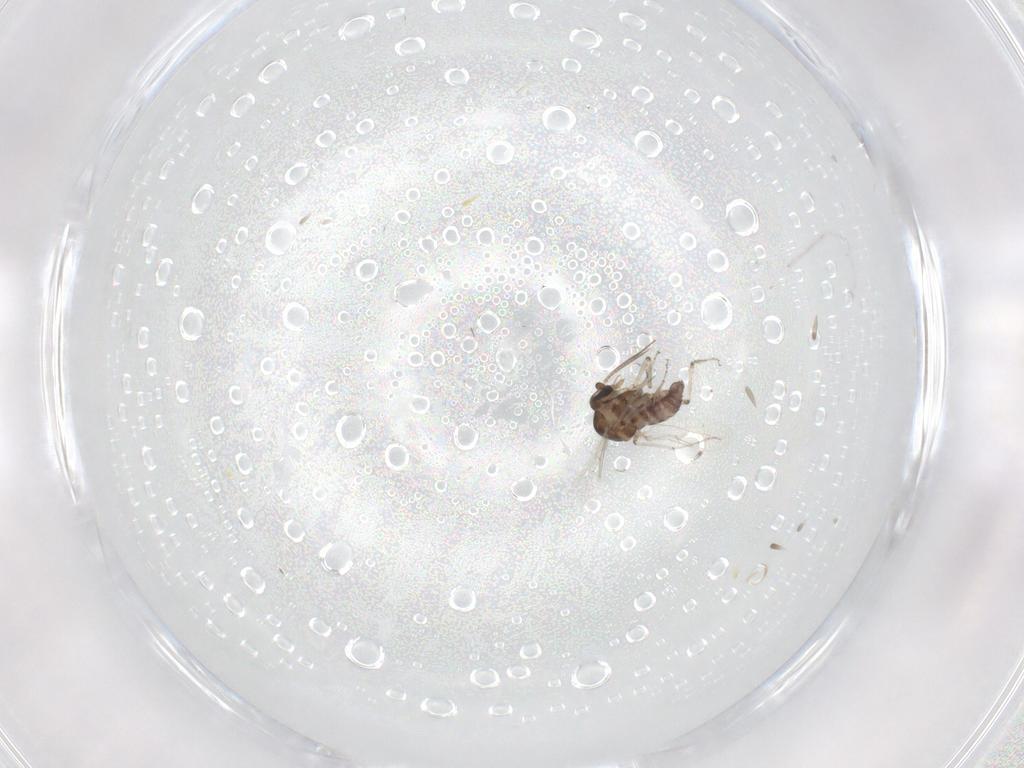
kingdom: Animalia
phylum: Arthropoda
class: Insecta
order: Diptera
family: Ceratopogonidae
